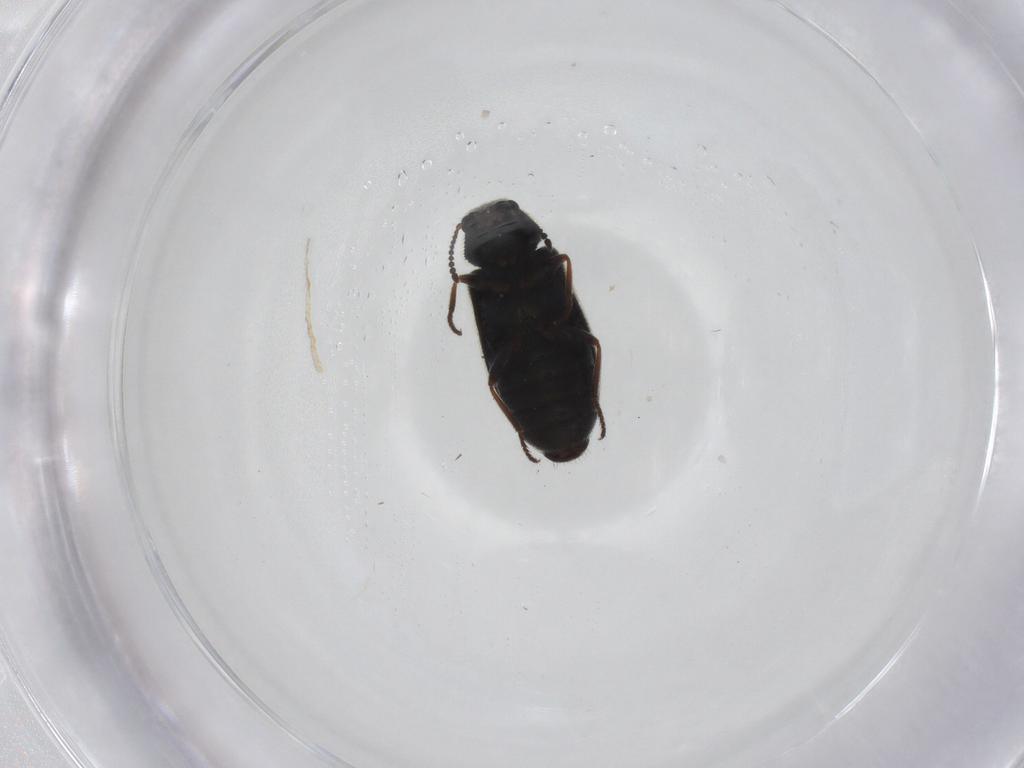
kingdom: Animalia
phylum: Arthropoda
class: Insecta
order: Coleoptera
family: Melyridae
